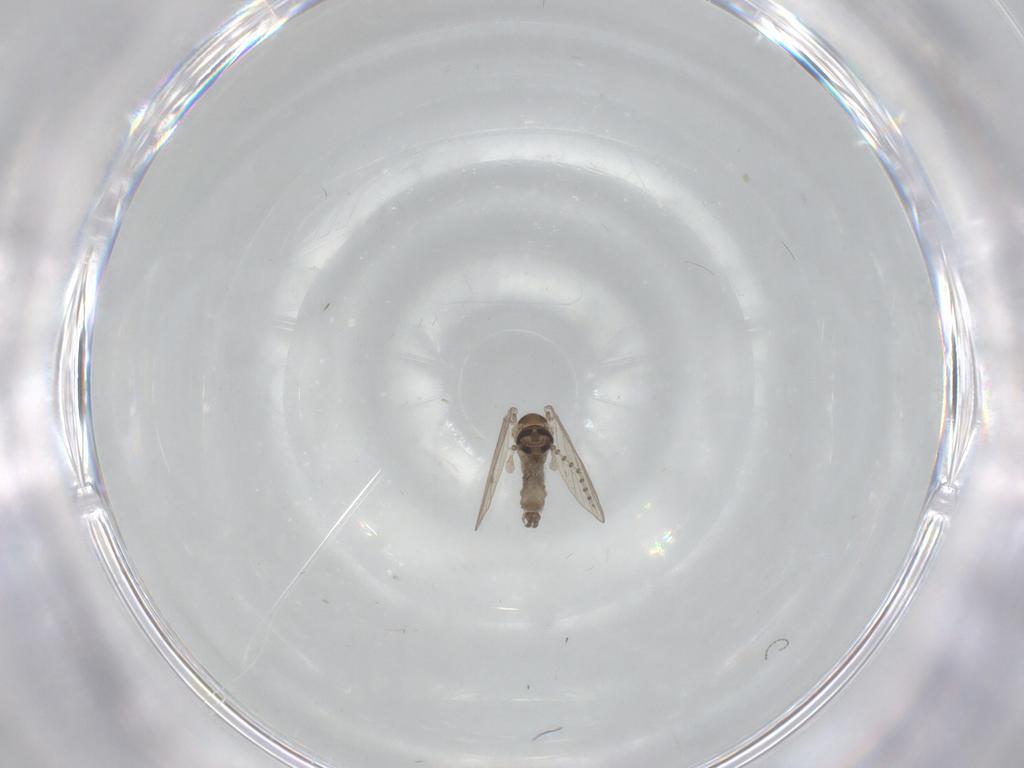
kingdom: Animalia
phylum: Arthropoda
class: Insecta
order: Diptera
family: Psychodidae
